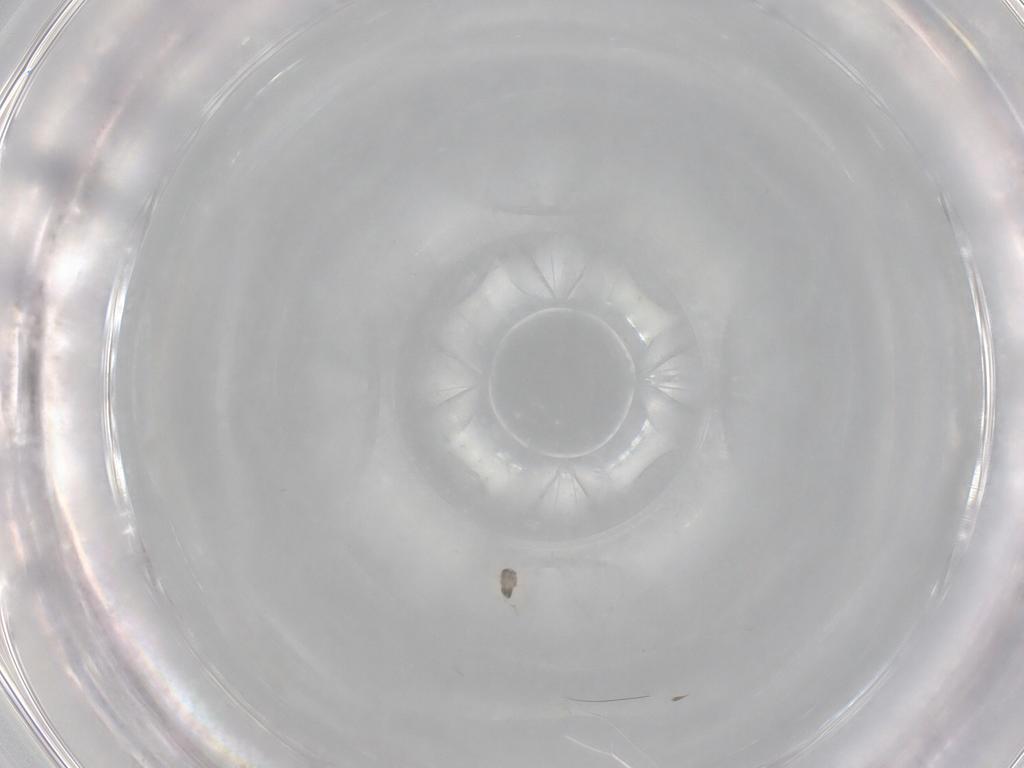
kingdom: Animalia
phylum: Arthropoda
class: Insecta
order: Hymenoptera
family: Mymaridae
